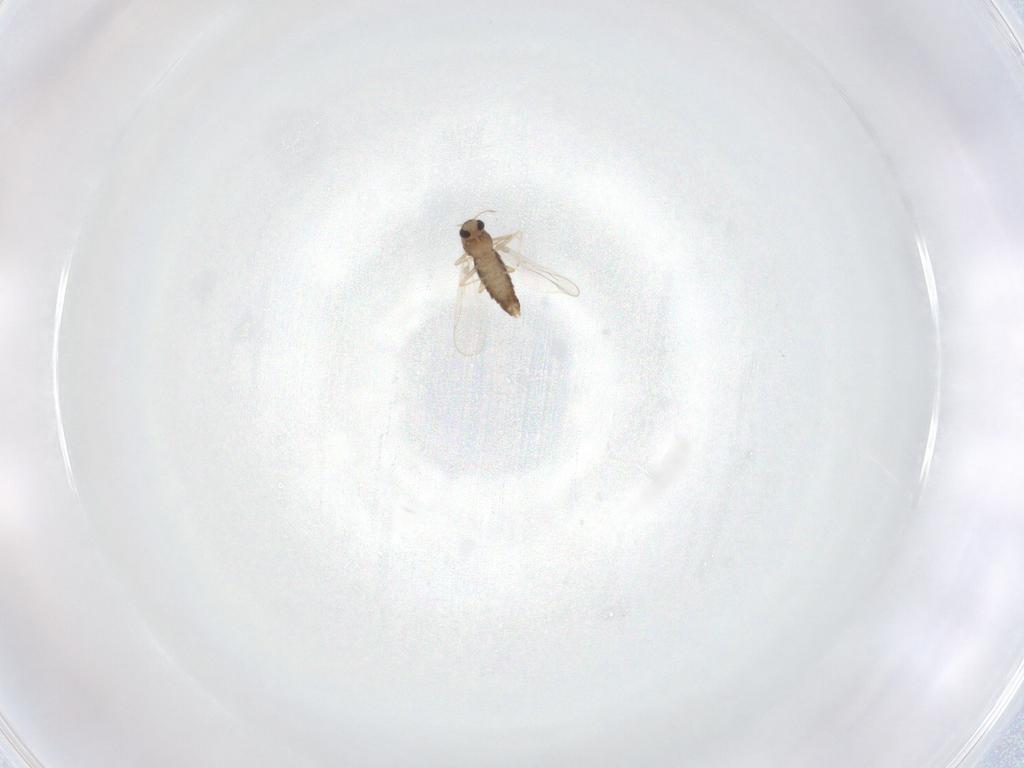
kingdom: Animalia
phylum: Arthropoda
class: Insecta
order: Diptera
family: Chironomidae
